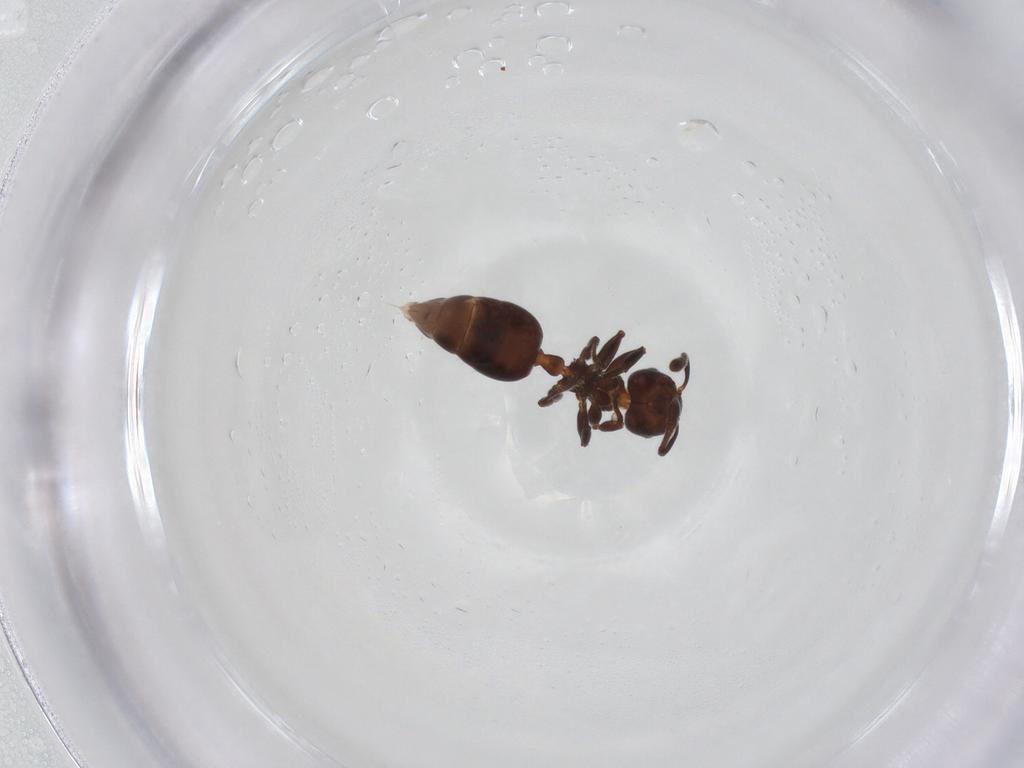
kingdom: Animalia
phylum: Arthropoda
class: Insecta
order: Hymenoptera
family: Formicidae
